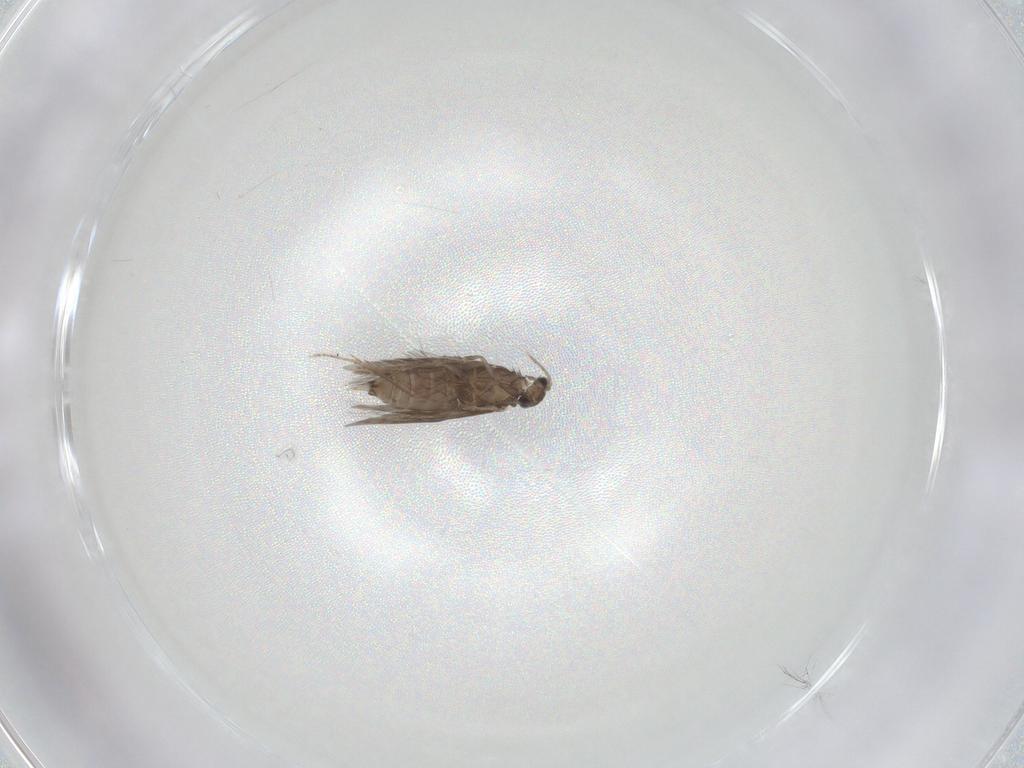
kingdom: Animalia
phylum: Arthropoda
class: Insecta
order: Trichoptera
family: Hydroptilidae
